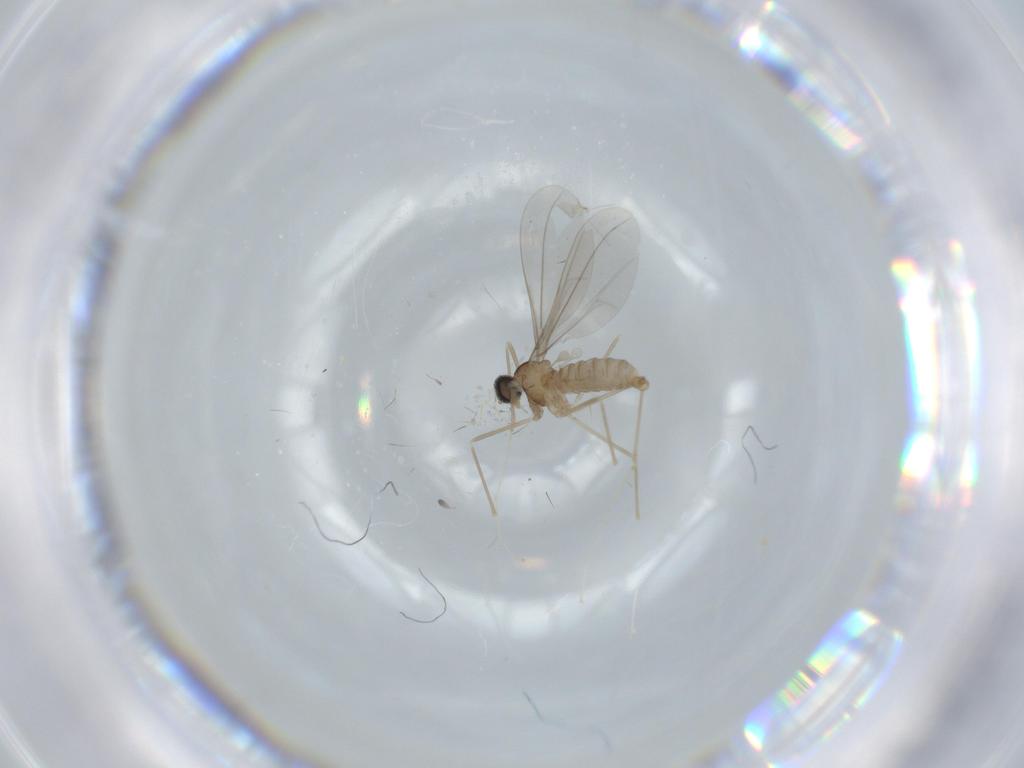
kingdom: Animalia
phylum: Arthropoda
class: Insecta
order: Diptera
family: Cecidomyiidae
